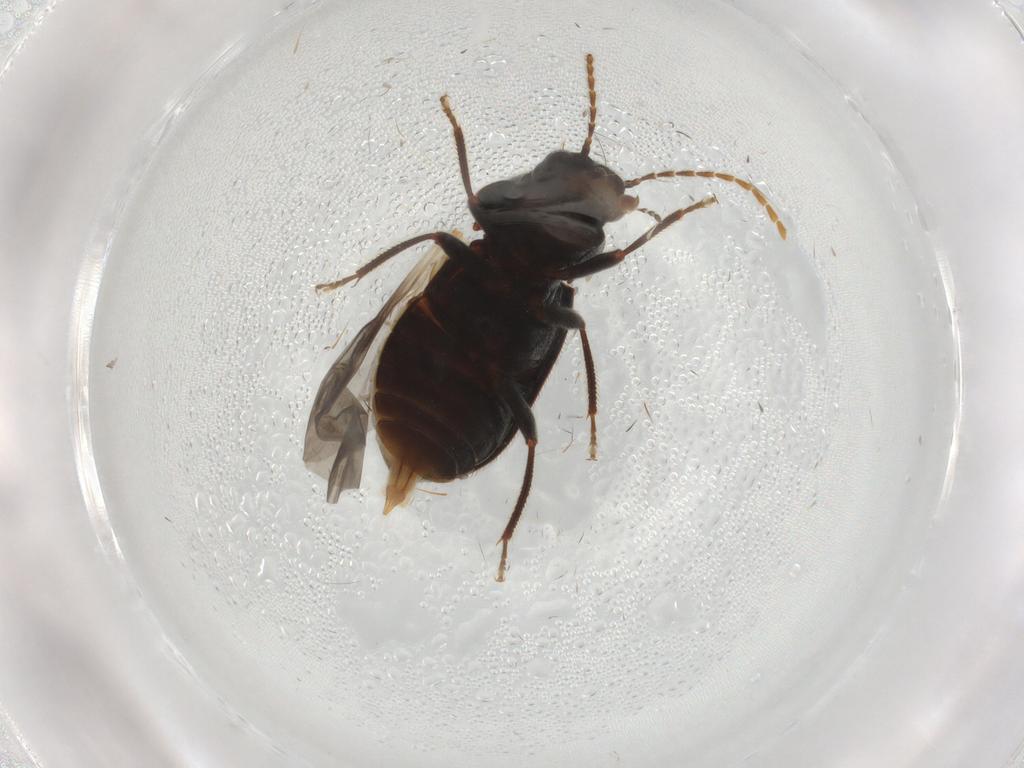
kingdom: Animalia
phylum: Arthropoda
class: Insecta
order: Coleoptera
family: Ptilodactylidae
